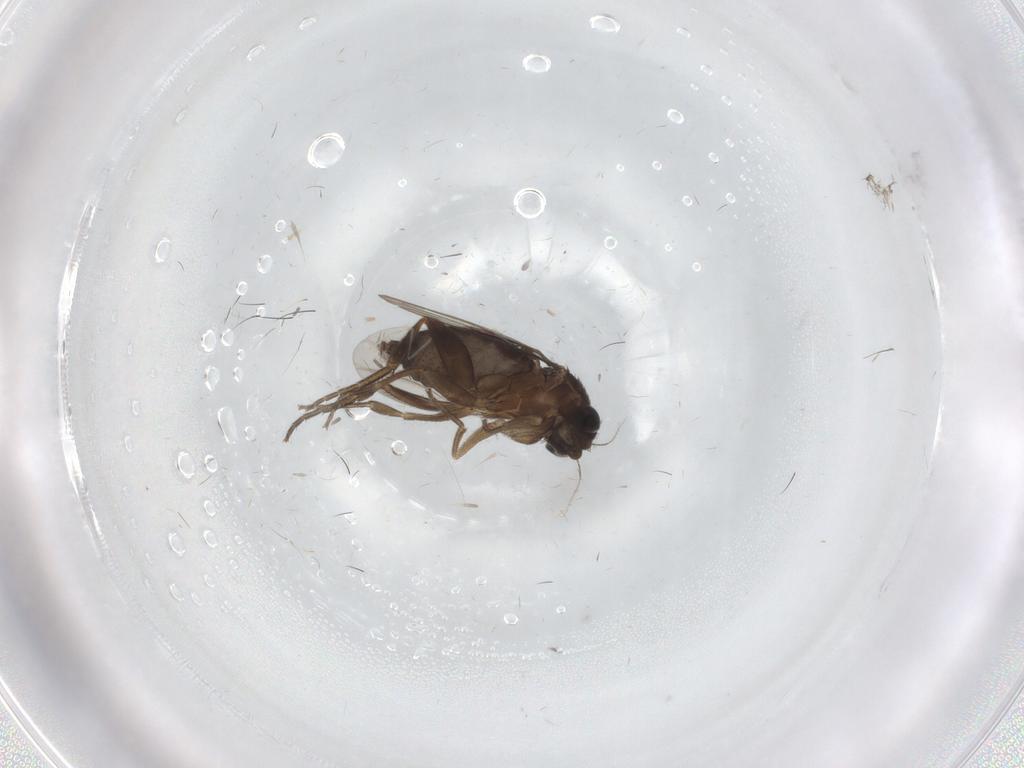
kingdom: Animalia
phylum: Arthropoda
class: Insecta
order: Diptera
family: Phoridae
